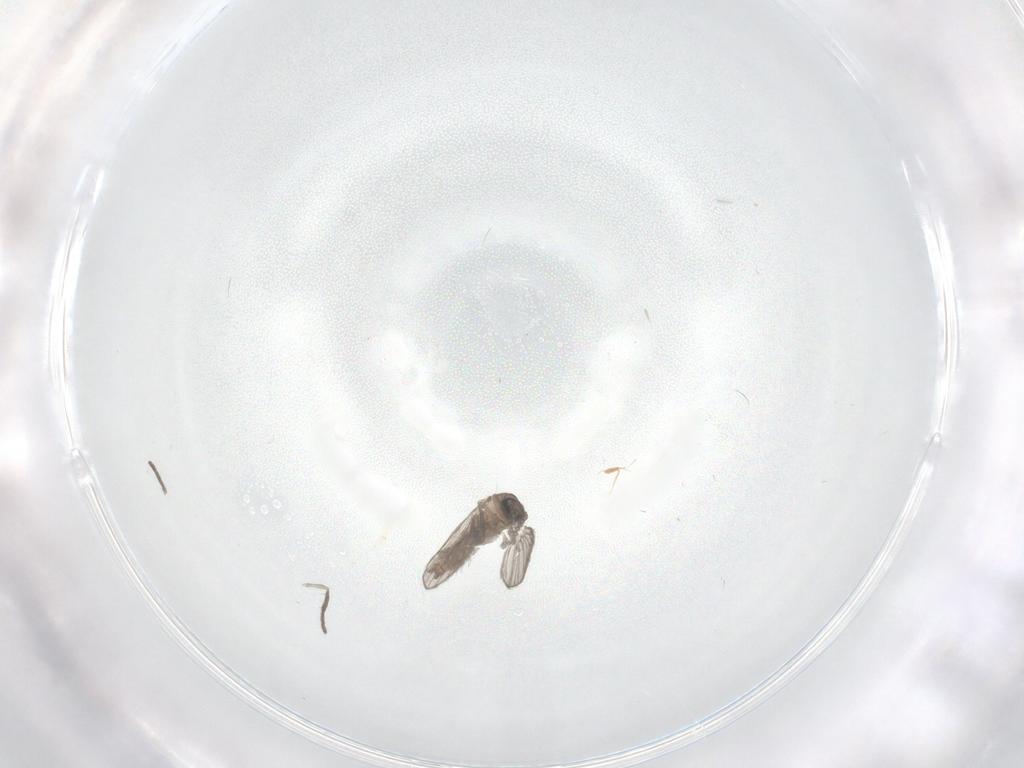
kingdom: Animalia
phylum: Arthropoda
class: Insecta
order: Diptera
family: Psychodidae
